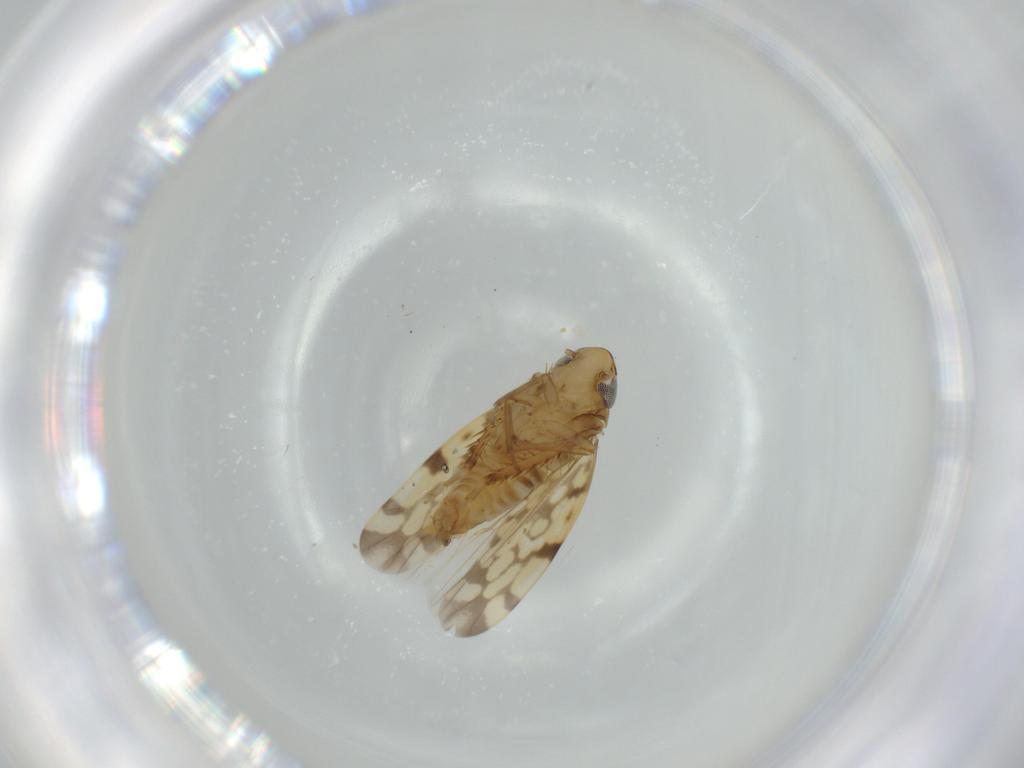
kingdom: Animalia
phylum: Arthropoda
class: Insecta
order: Hemiptera
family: Cicadellidae
